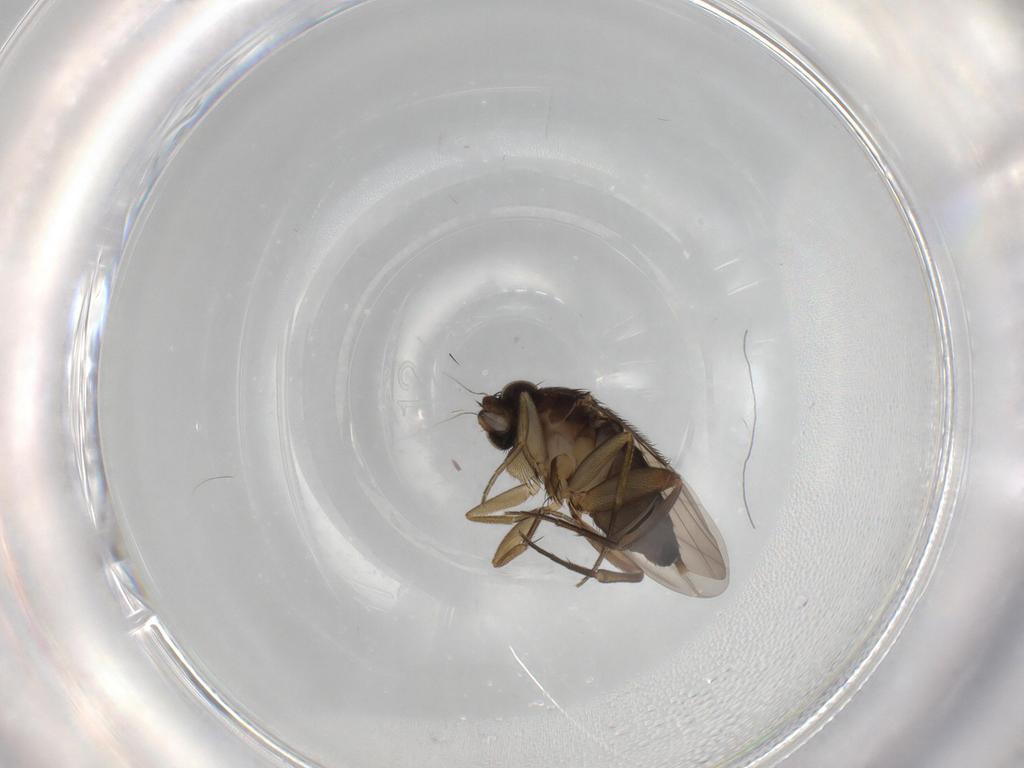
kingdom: Animalia
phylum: Arthropoda
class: Insecta
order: Diptera
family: Phoridae
